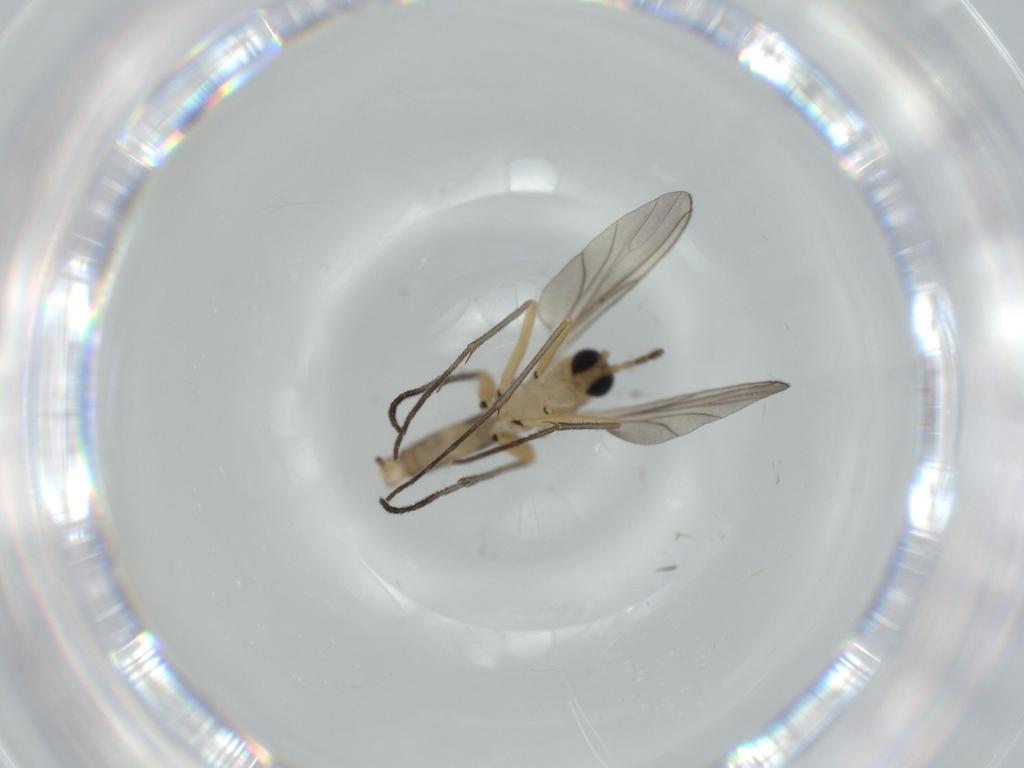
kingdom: Animalia
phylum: Arthropoda
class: Insecta
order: Diptera
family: Sciaridae
